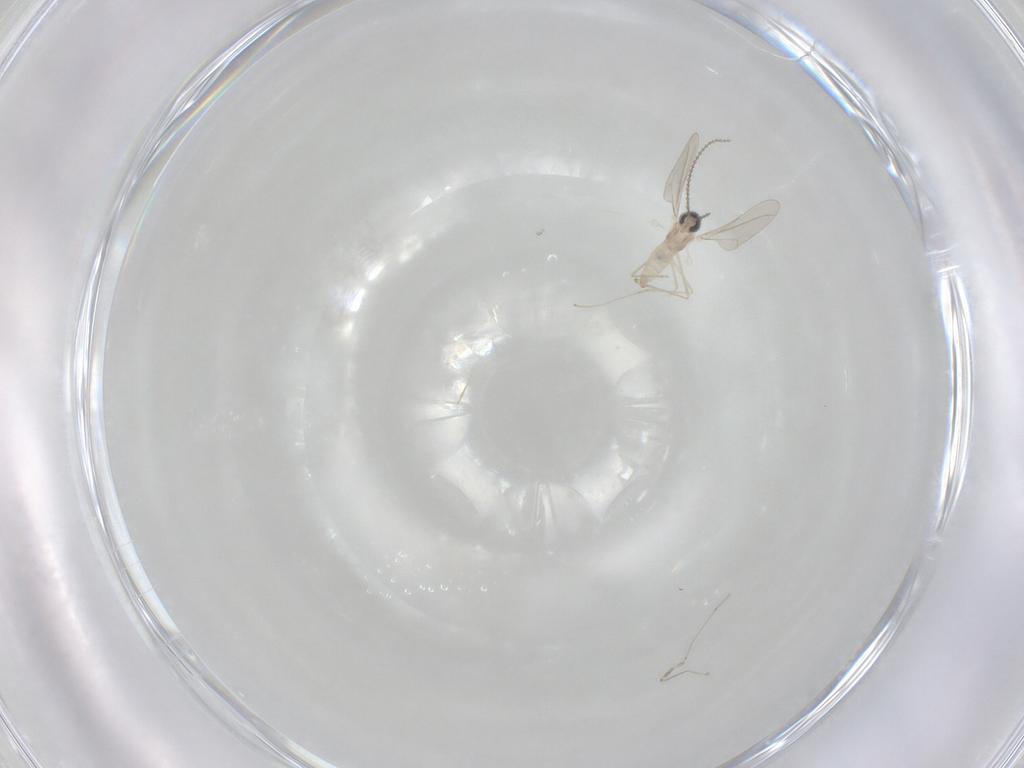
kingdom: Animalia
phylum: Arthropoda
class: Insecta
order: Diptera
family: Cecidomyiidae
